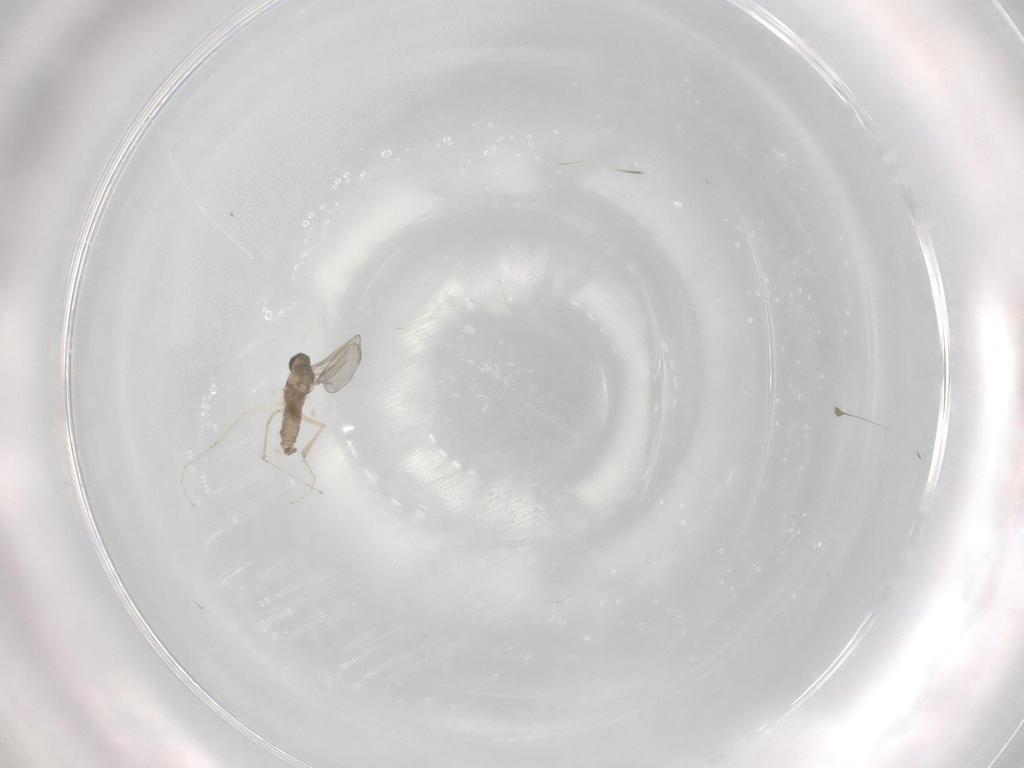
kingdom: Animalia
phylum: Arthropoda
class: Insecta
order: Diptera
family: Cecidomyiidae
